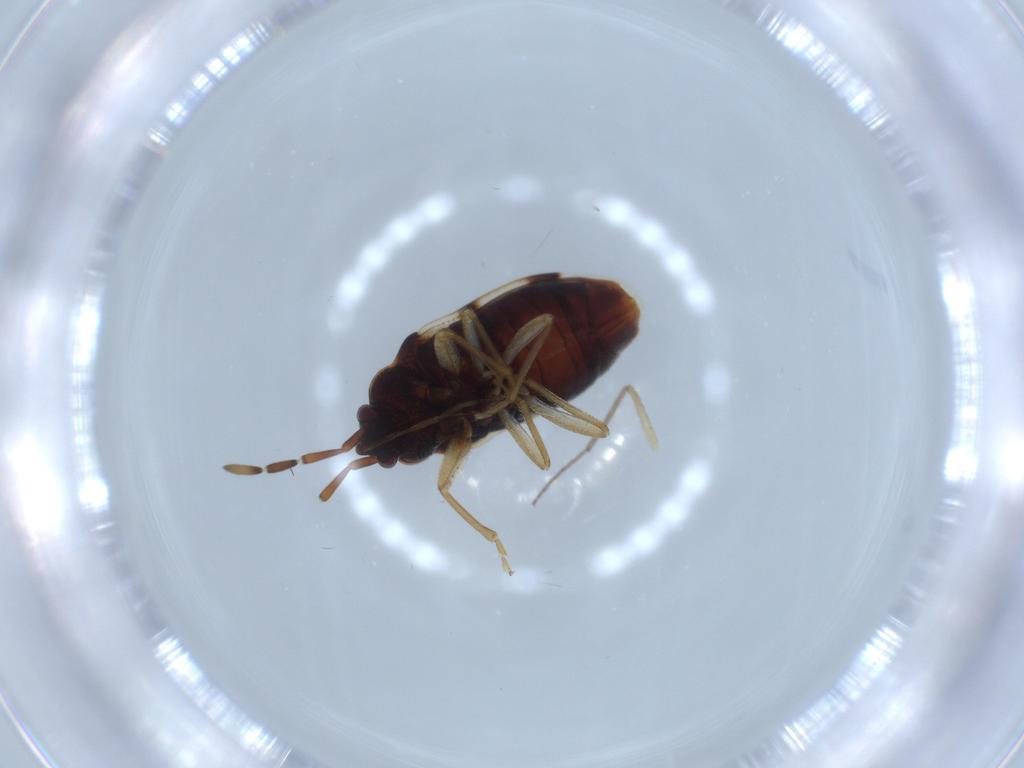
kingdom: Animalia
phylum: Arthropoda
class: Insecta
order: Hemiptera
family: Rhyparochromidae
